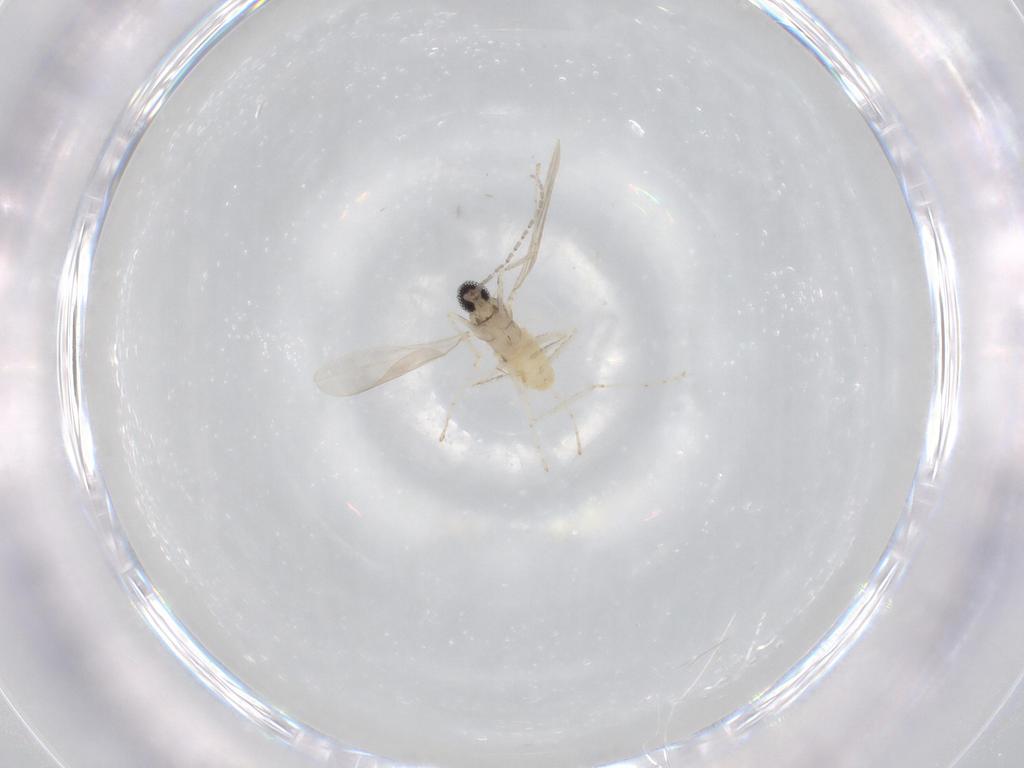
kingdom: Animalia
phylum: Arthropoda
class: Insecta
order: Diptera
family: Cecidomyiidae
